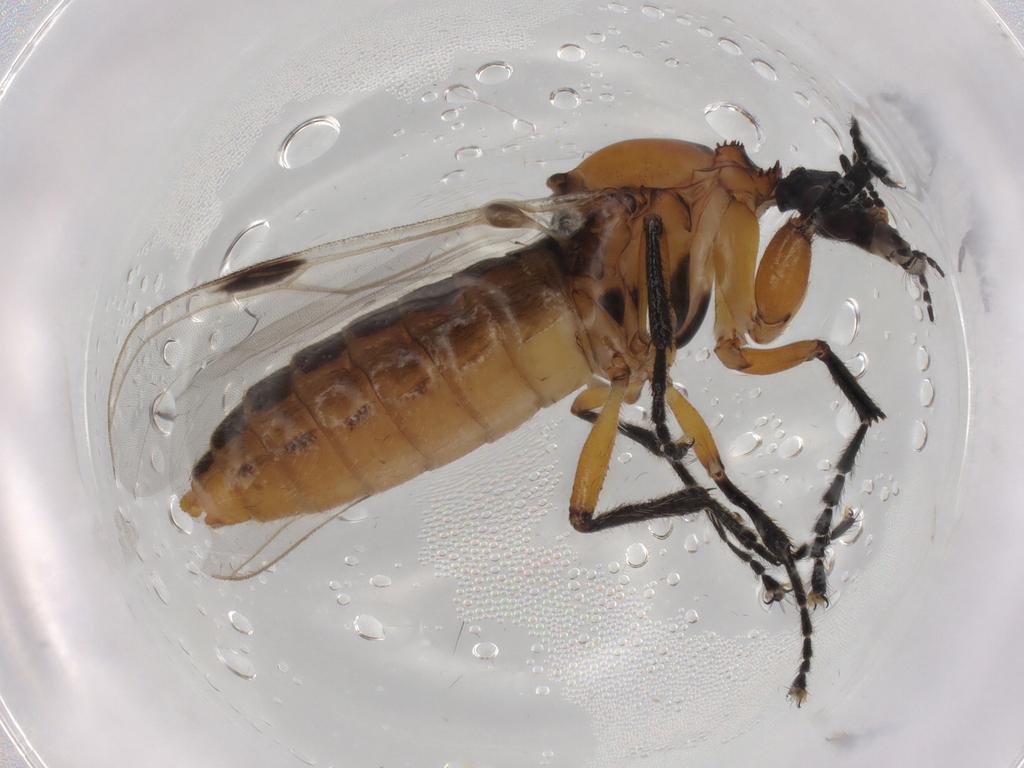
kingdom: Animalia
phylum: Arthropoda
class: Insecta
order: Diptera
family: Bibionidae
